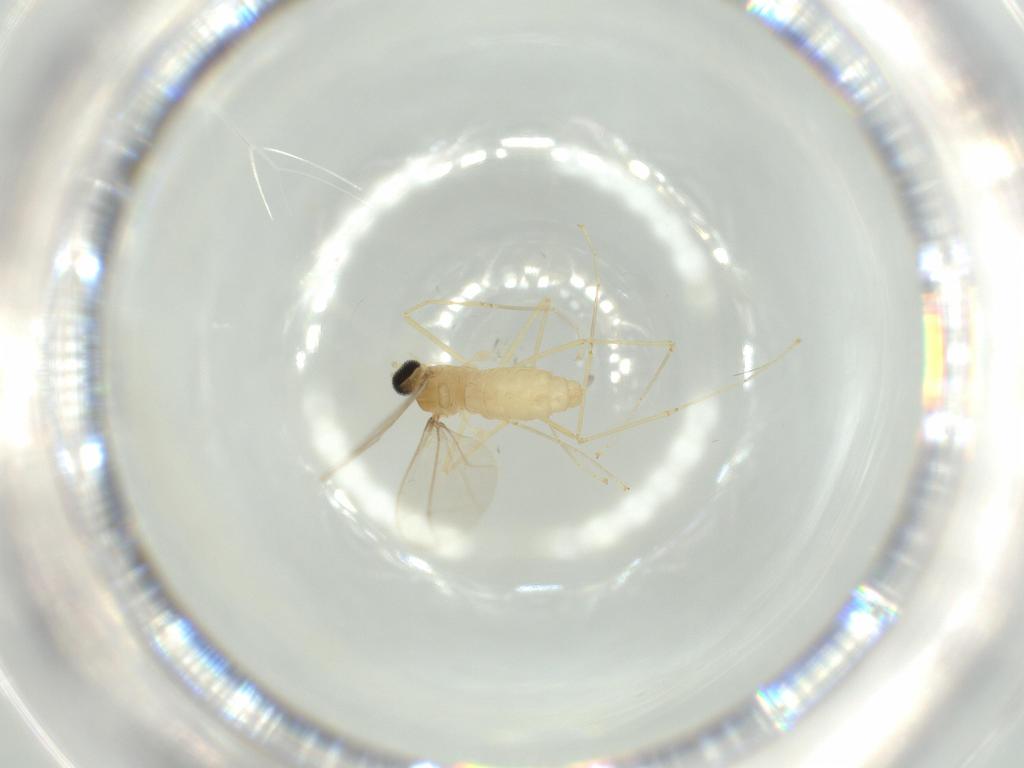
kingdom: Animalia
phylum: Arthropoda
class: Insecta
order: Diptera
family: Cecidomyiidae
